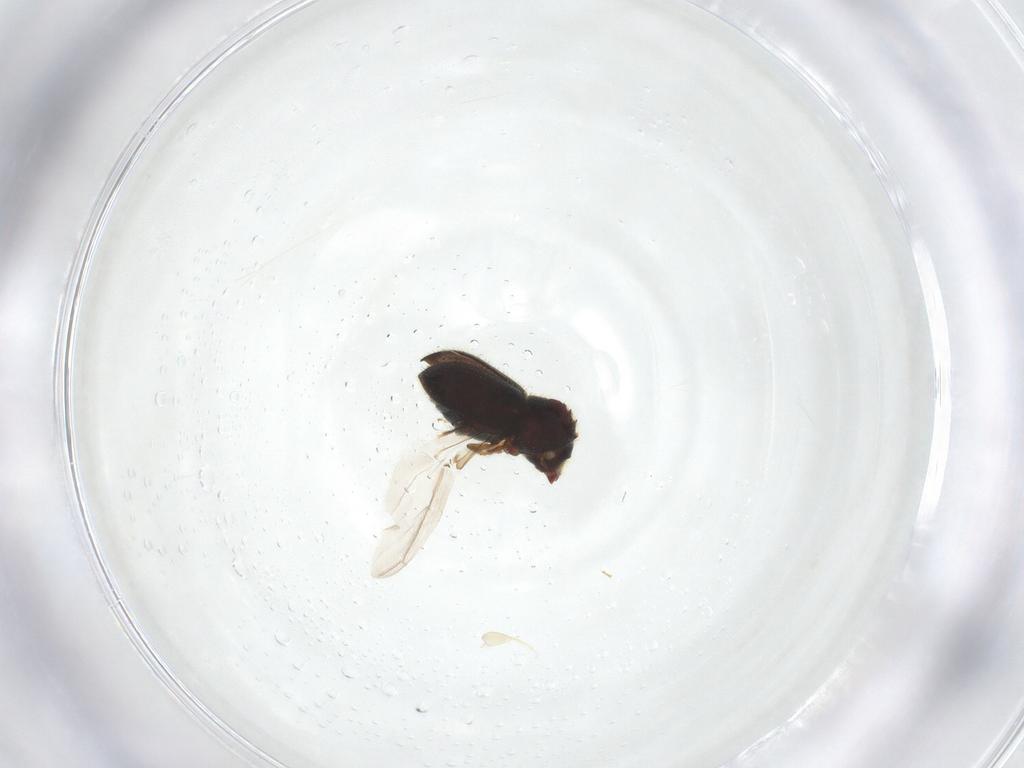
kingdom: Animalia
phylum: Arthropoda
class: Insecta
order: Coleoptera
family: Curculionidae
